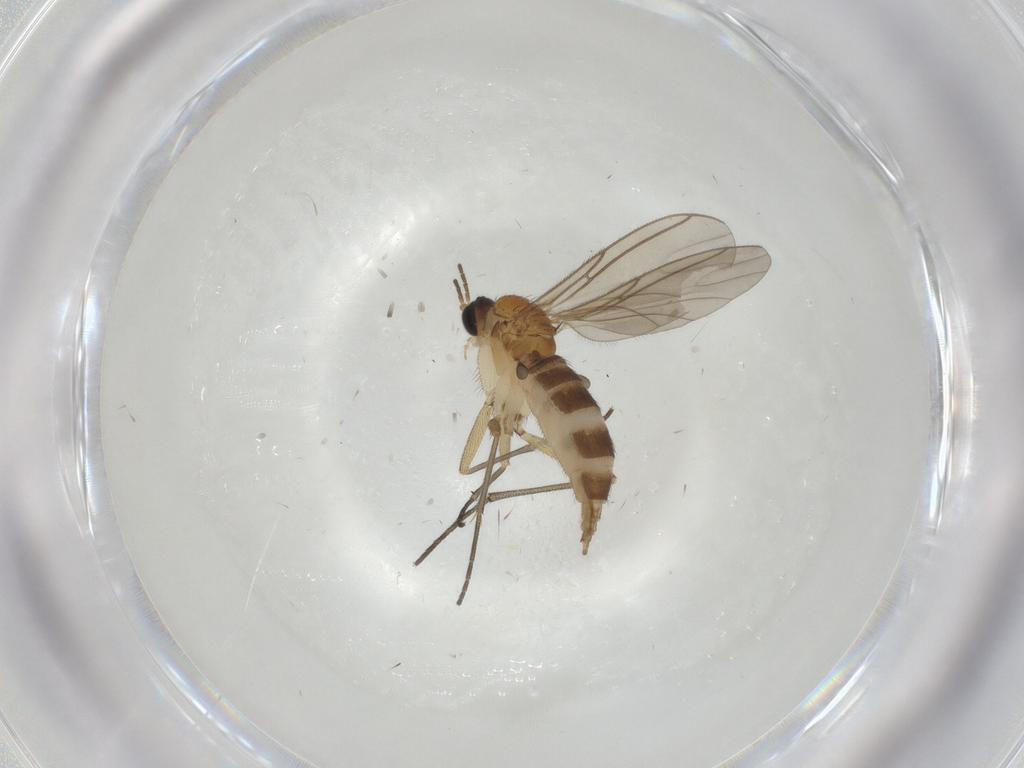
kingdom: Animalia
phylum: Arthropoda
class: Insecta
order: Diptera
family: Sciaridae
